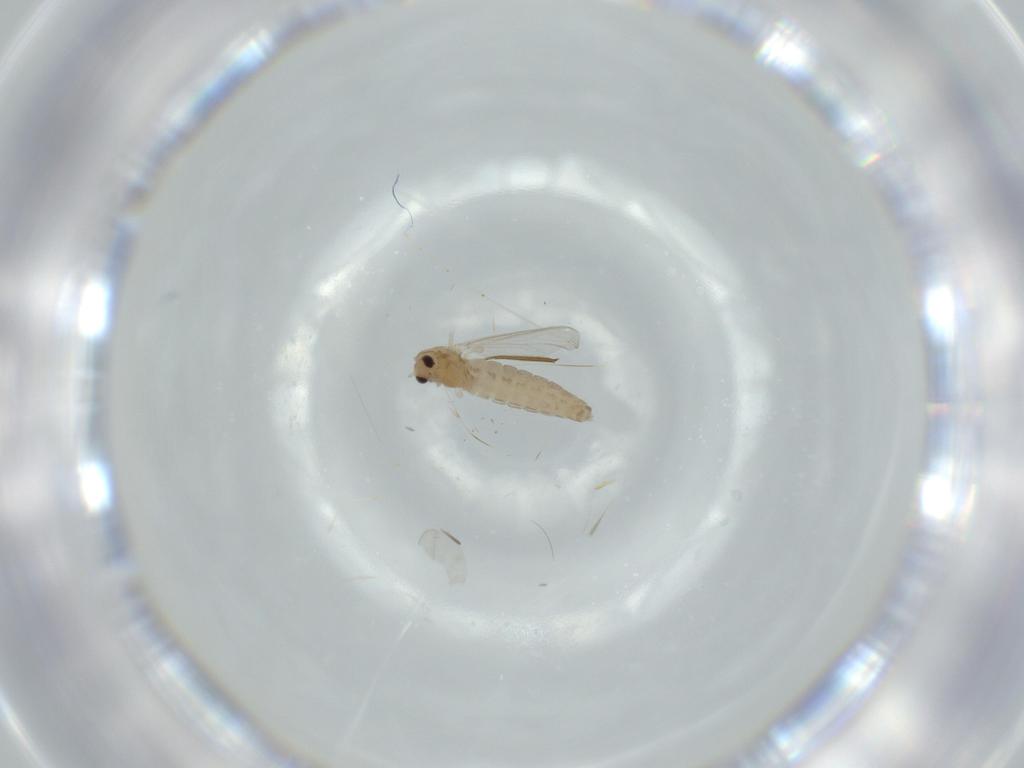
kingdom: Animalia
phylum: Arthropoda
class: Insecta
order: Diptera
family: Chironomidae
